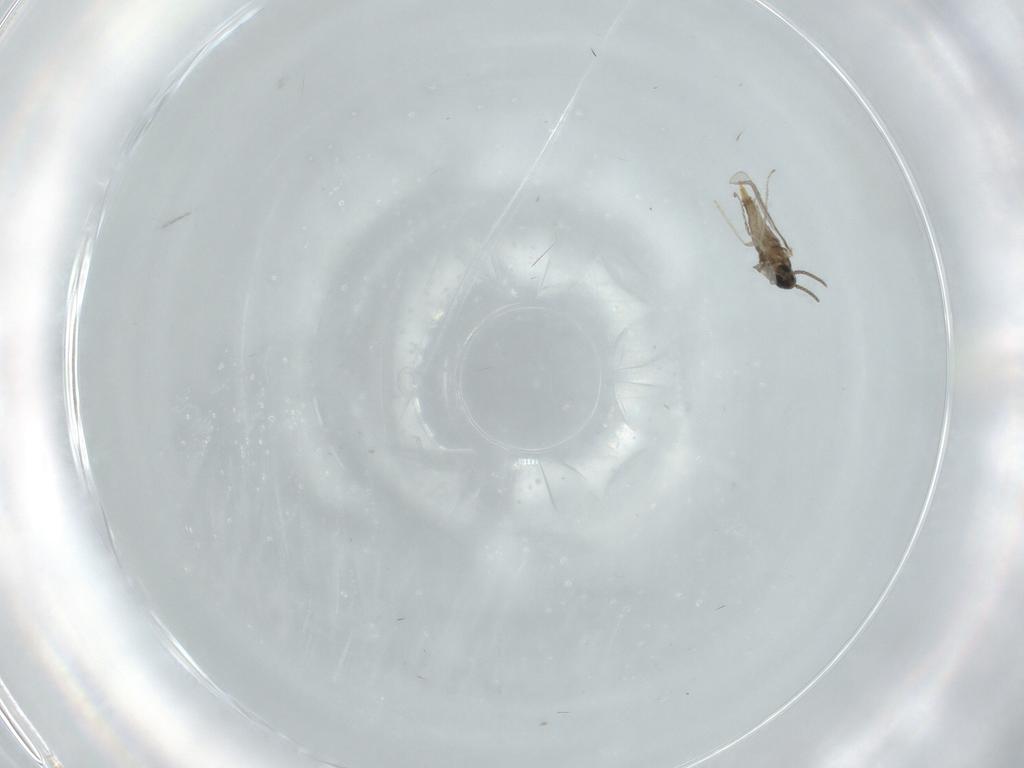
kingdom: Animalia
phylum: Arthropoda
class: Insecta
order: Diptera
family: Cecidomyiidae
